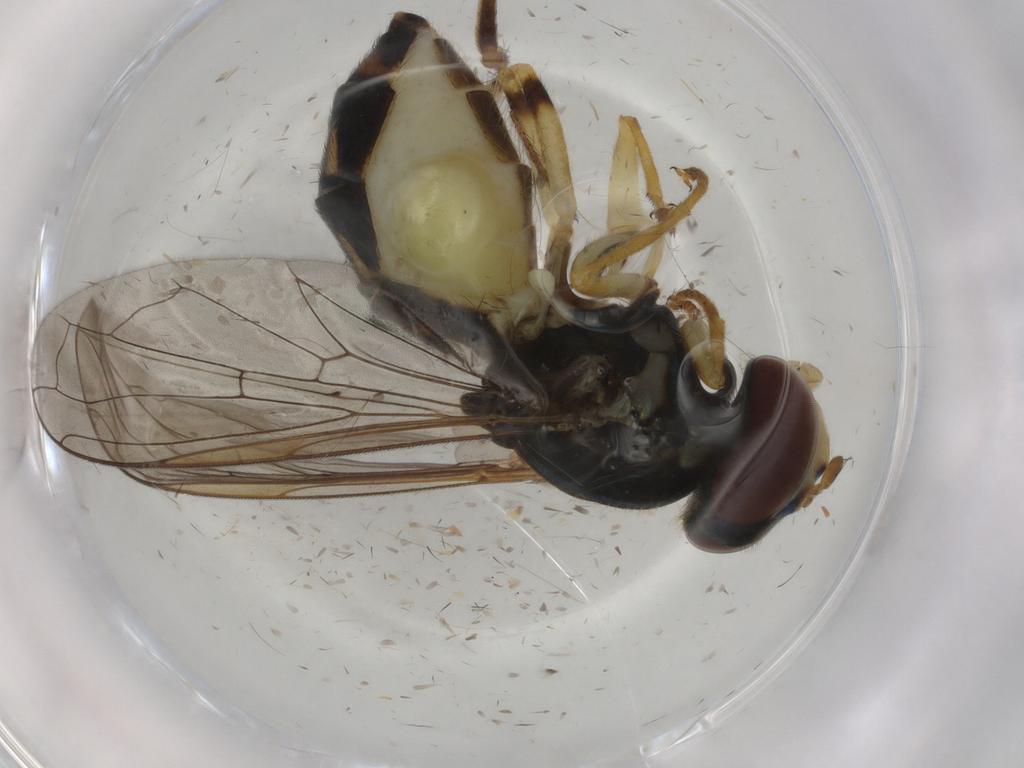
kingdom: Animalia
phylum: Arthropoda
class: Insecta
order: Diptera
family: Syrphidae
